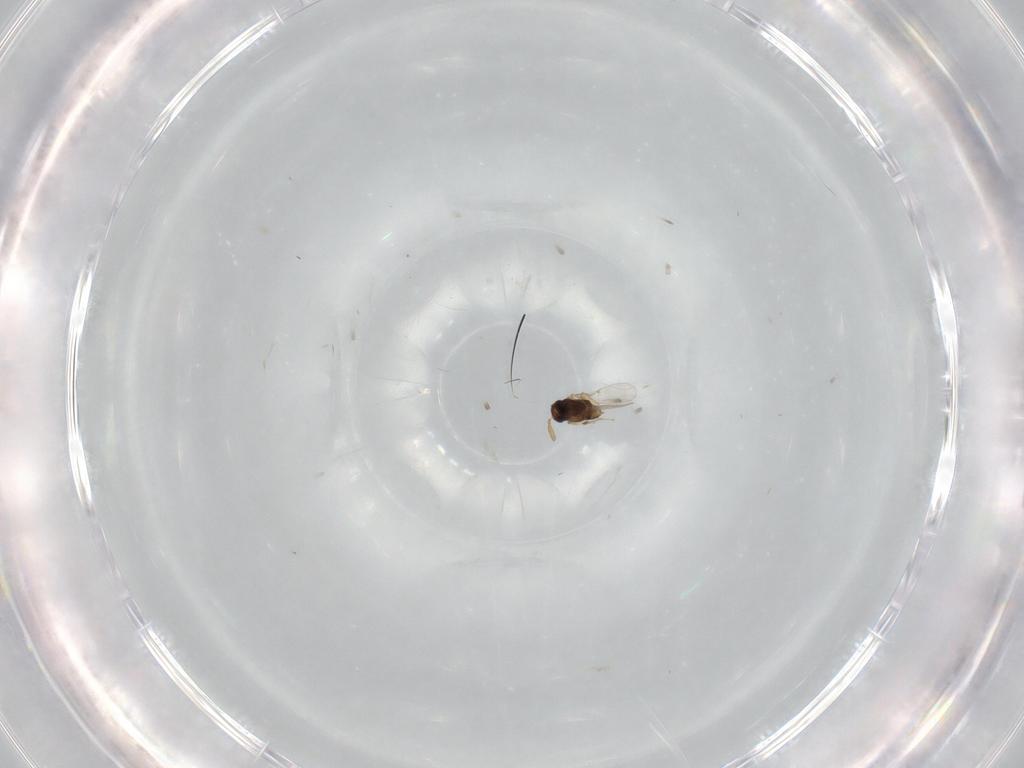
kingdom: Animalia
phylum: Arthropoda
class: Insecta
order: Hymenoptera
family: Encyrtidae
